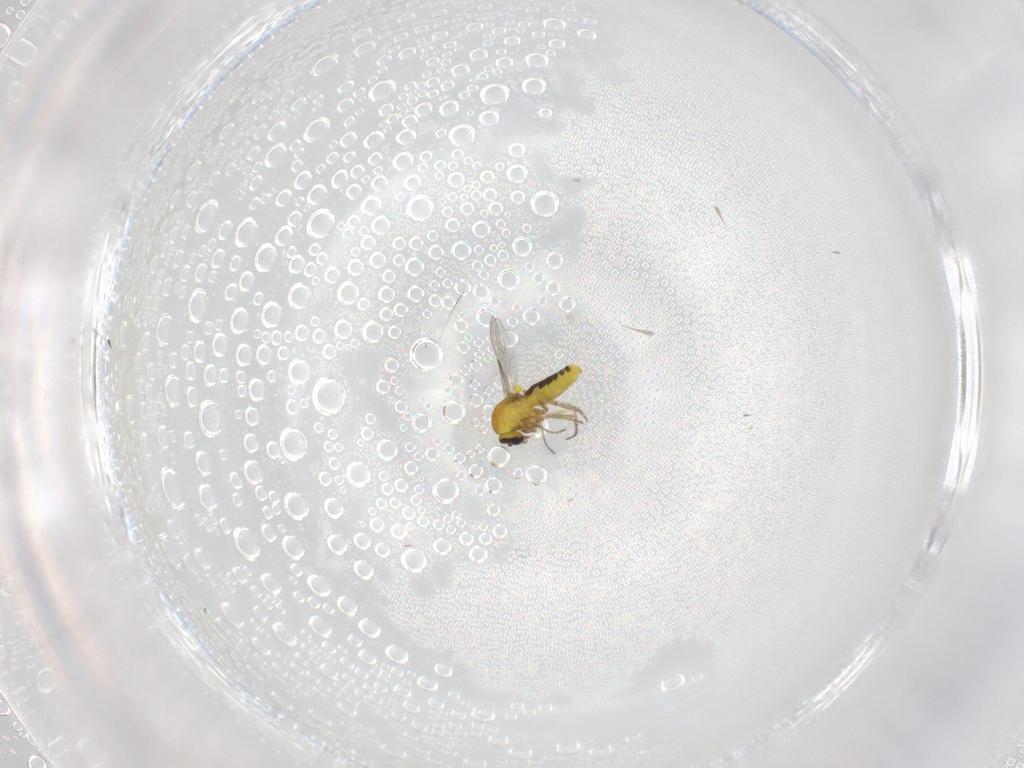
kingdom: Animalia
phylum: Arthropoda
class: Insecta
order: Diptera
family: Ceratopogonidae
